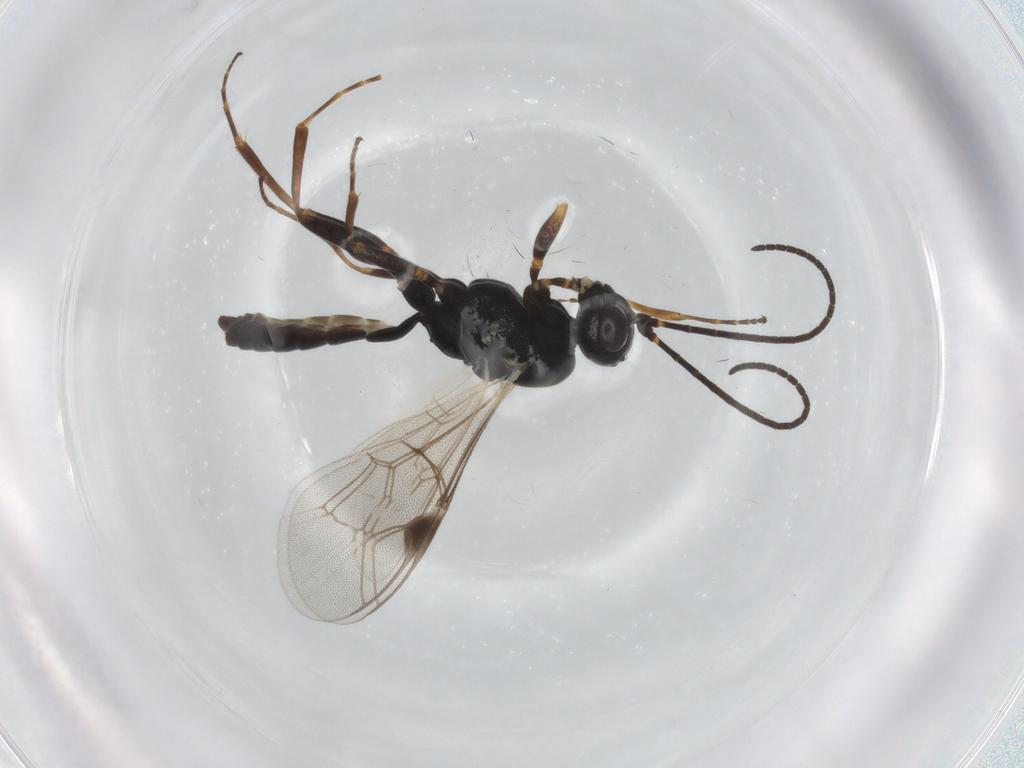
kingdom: Animalia
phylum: Arthropoda
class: Insecta
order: Hymenoptera
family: Ichneumonidae
